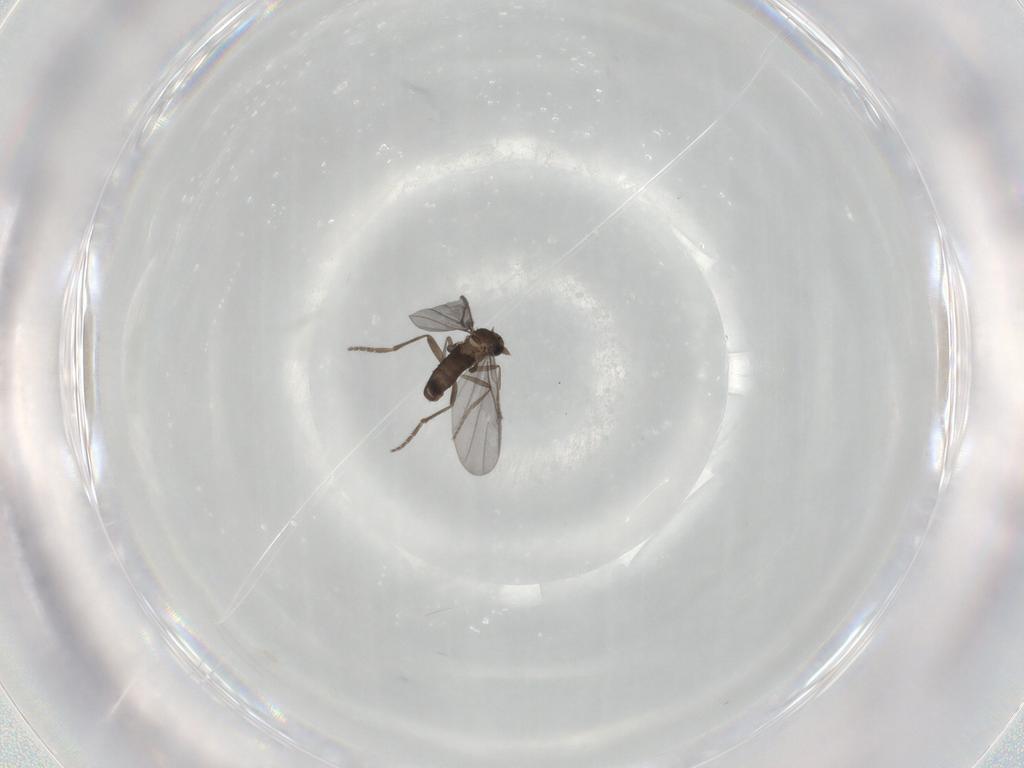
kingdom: Animalia
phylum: Arthropoda
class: Insecta
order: Diptera
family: Phoridae
